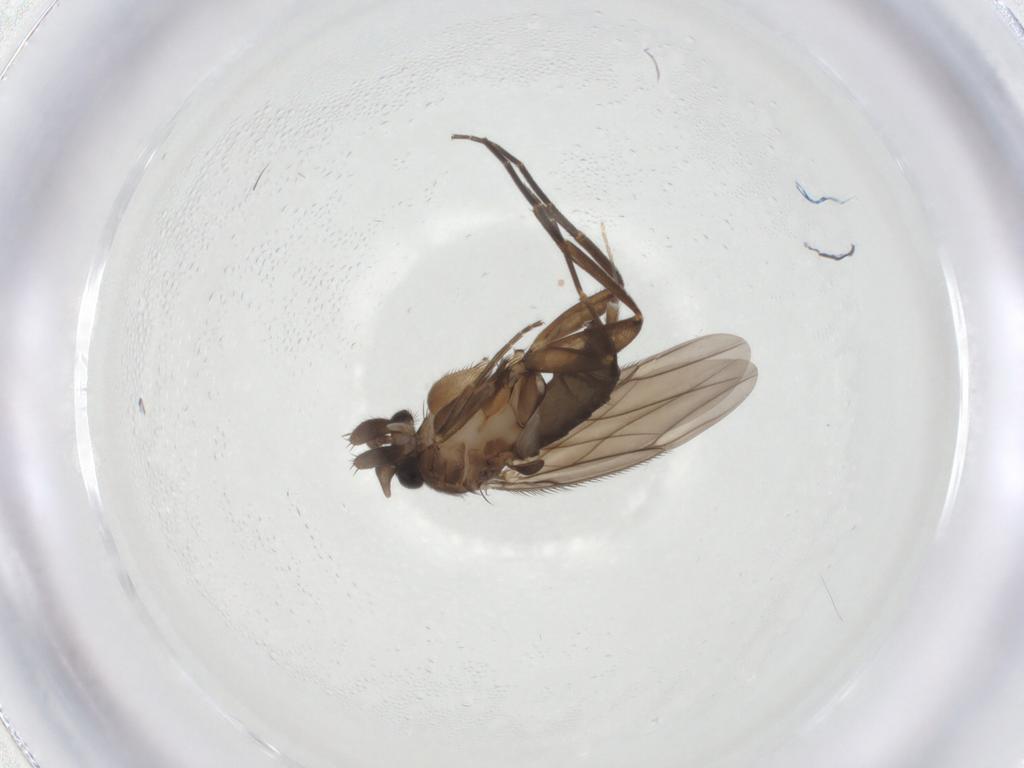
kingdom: Animalia
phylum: Arthropoda
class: Insecta
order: Diptera
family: Phoridae
